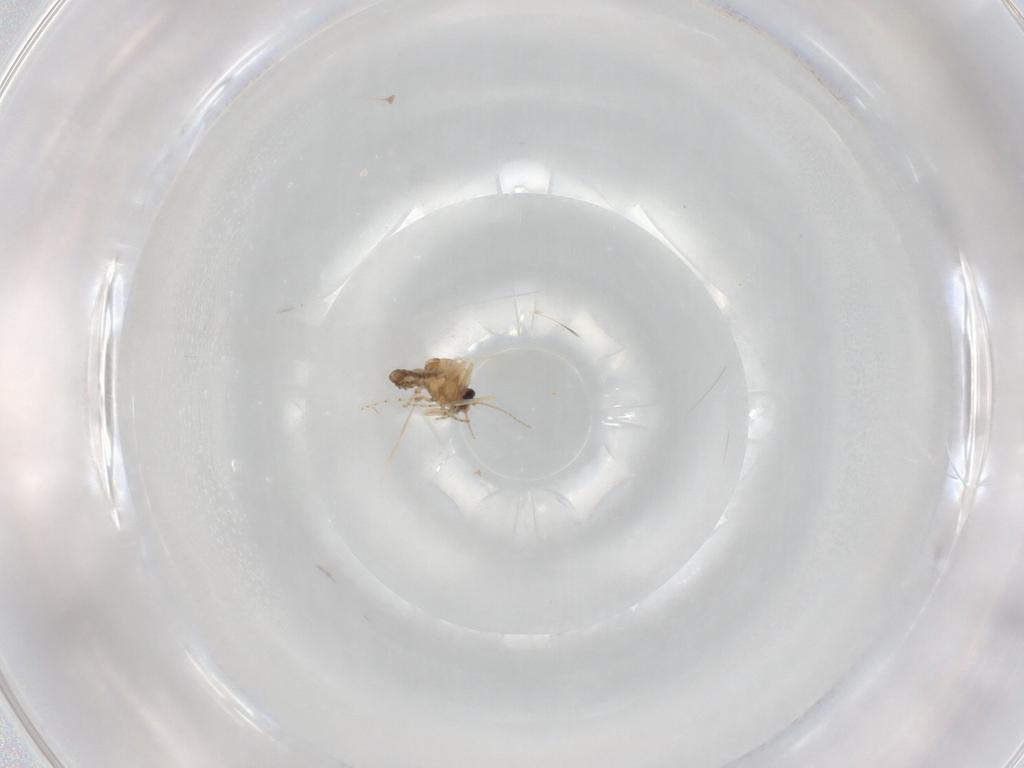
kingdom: Animalia
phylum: Arthropoda
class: Insecta
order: Diptera
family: Ceratopogonidae
